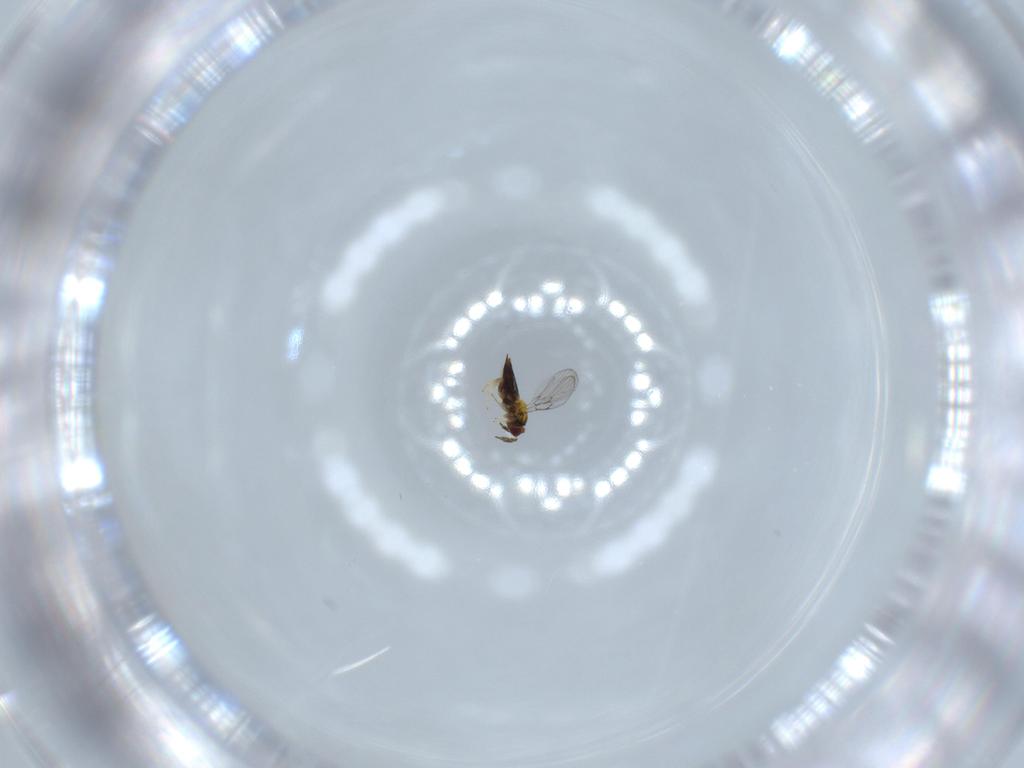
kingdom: Animalia
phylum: Arthropoda
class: Insecta
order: Hymenoptera
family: Trichogrammatidae
